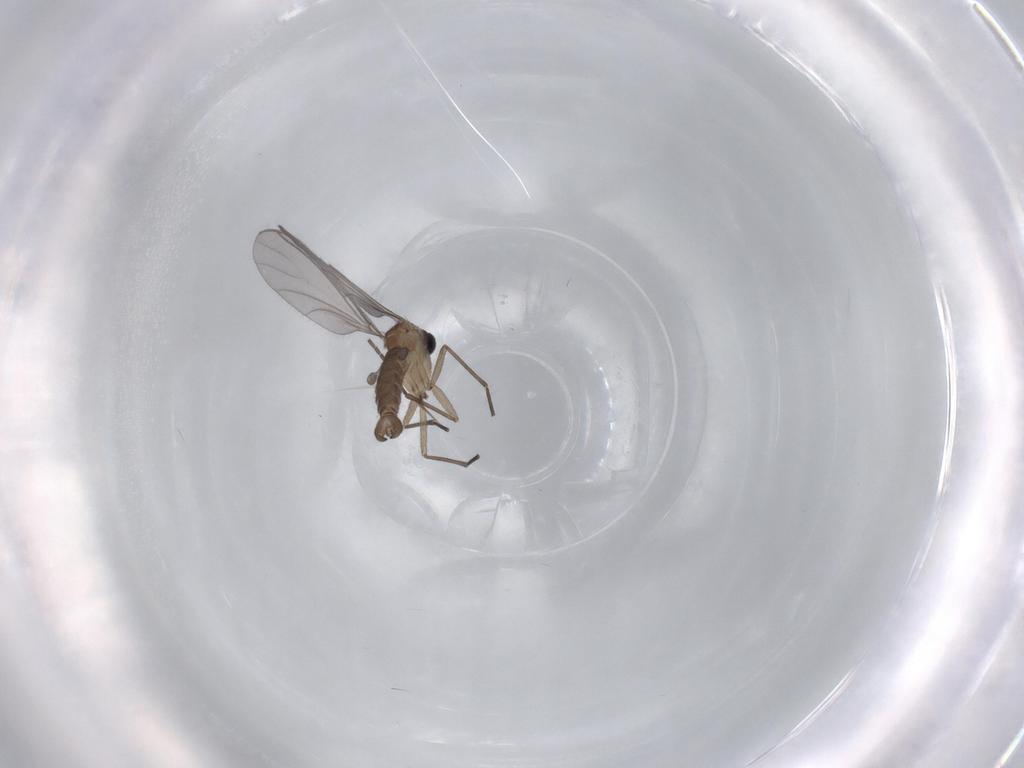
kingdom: Animalia
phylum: Arthropoda
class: Insecta
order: Diptera
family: Sciaridae
